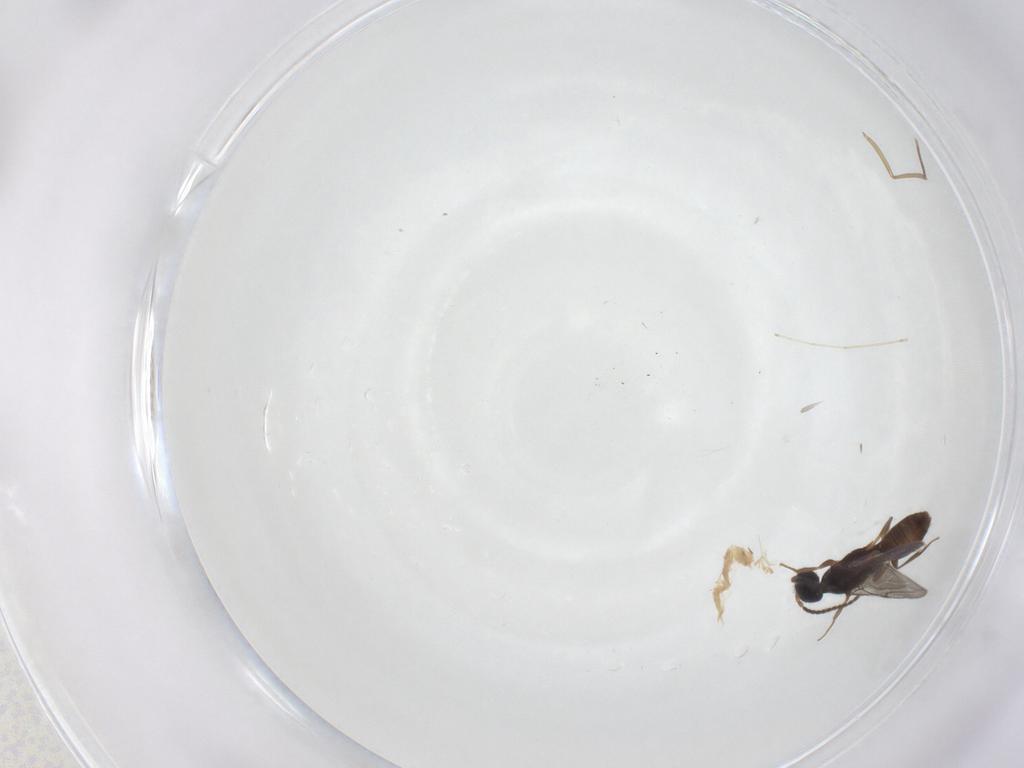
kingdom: Animalia
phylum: Arthropoda
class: Insecta
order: Hymenoptera
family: Bethylidae
